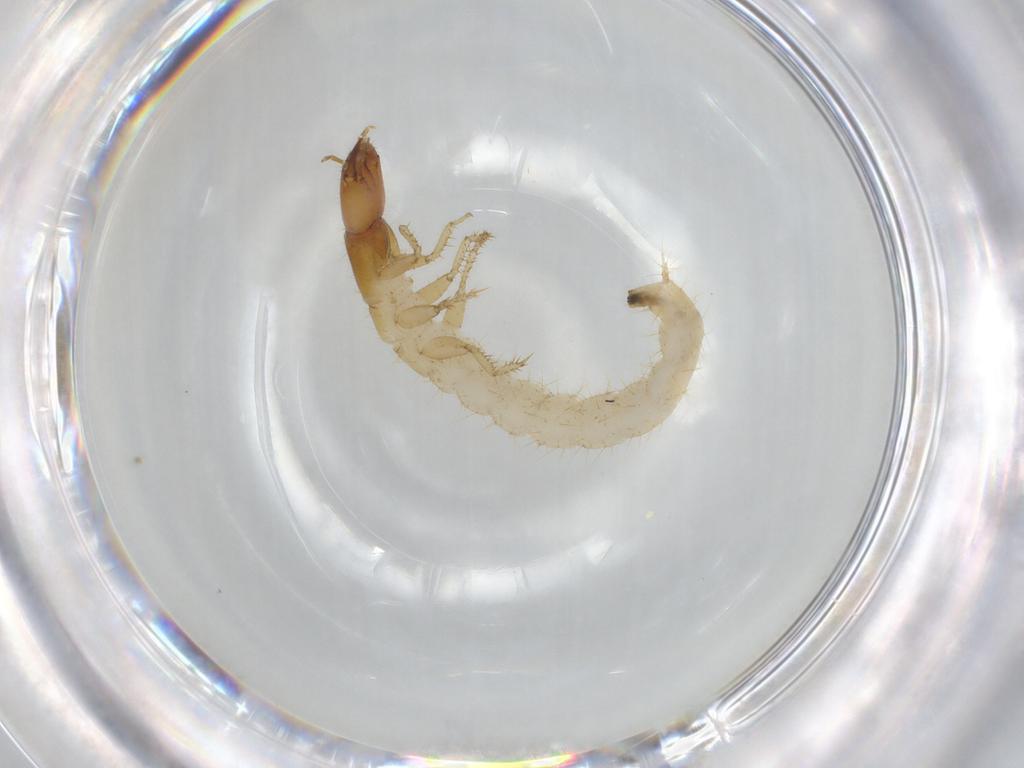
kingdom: Animalia
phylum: Arthropoda
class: Insecta
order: Coleoptera
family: Staphylinidae
